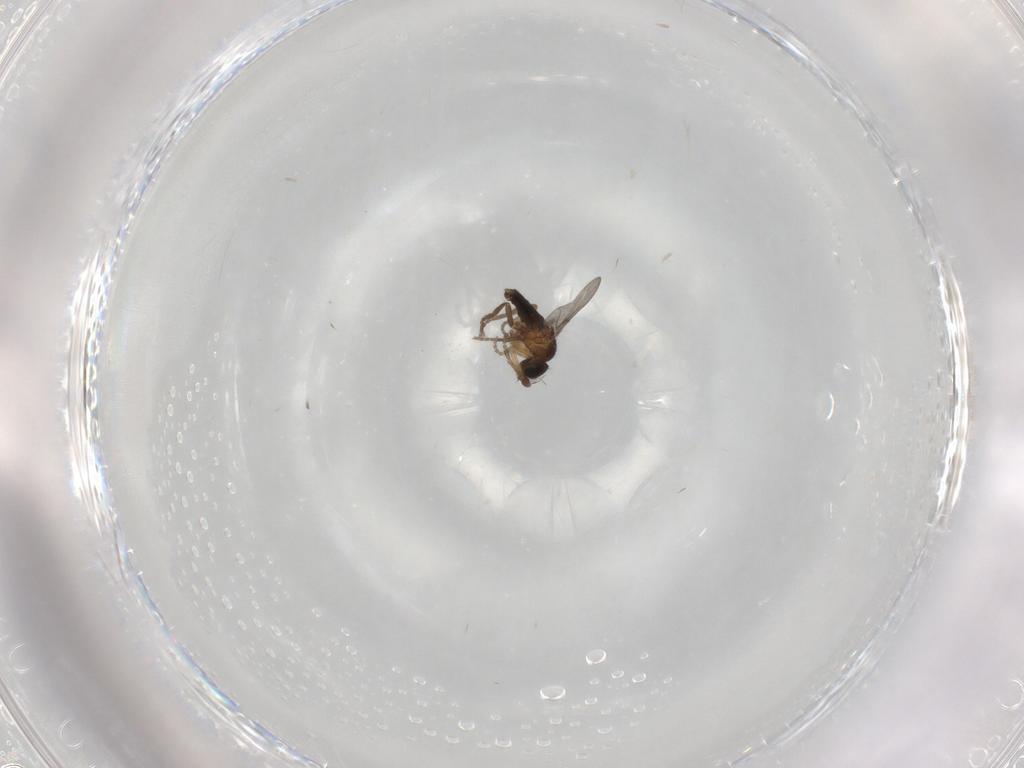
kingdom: Animalia
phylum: Arthropoda
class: Insecta
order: Diptera
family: Phoridae
